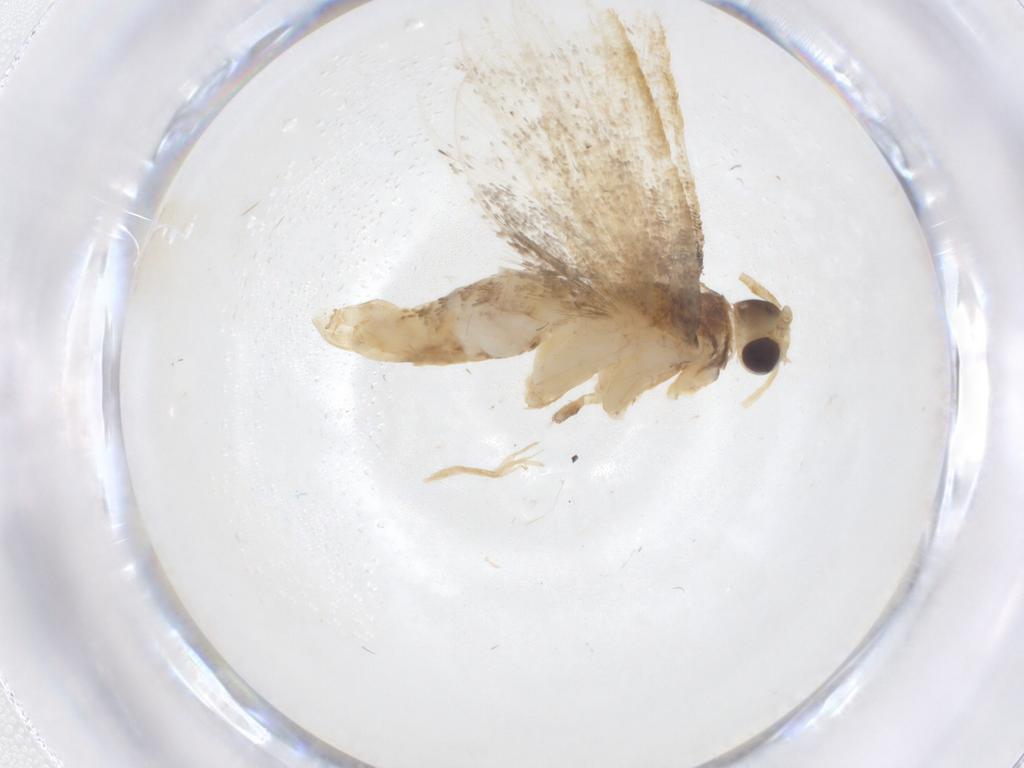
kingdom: Animalia
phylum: Arthropoda
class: Insecta
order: Lepidoptera
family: Lecithoceridae
